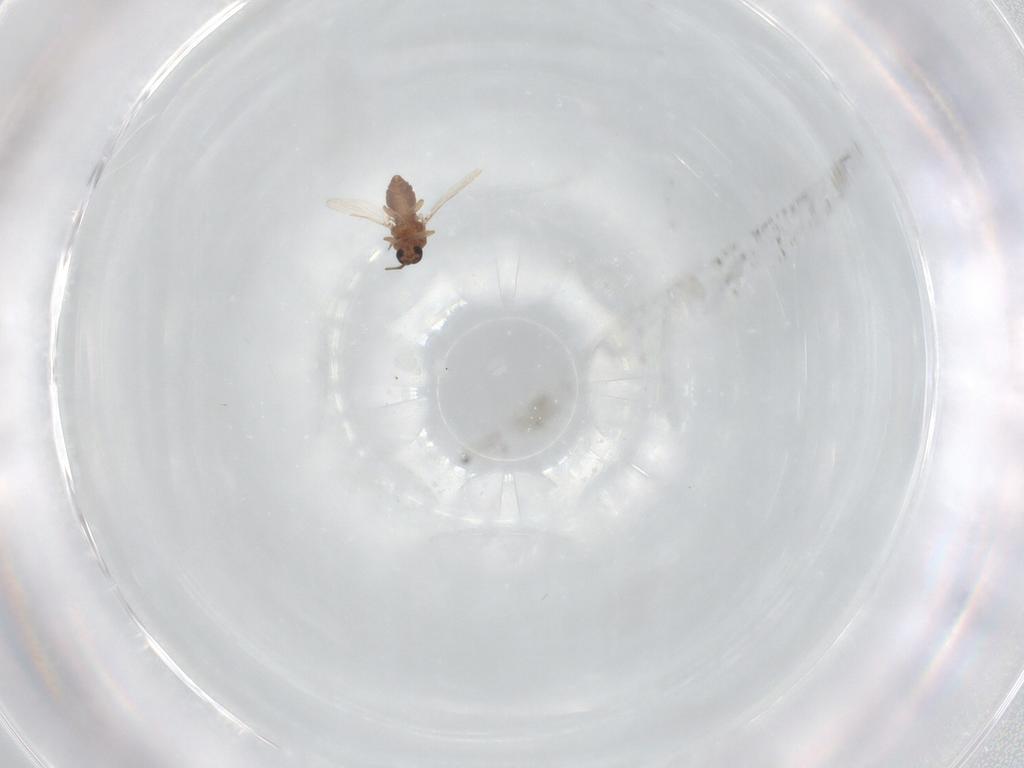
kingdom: Animalia
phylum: Arthropoda
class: Insecta
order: Diptera
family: Chironomidae
